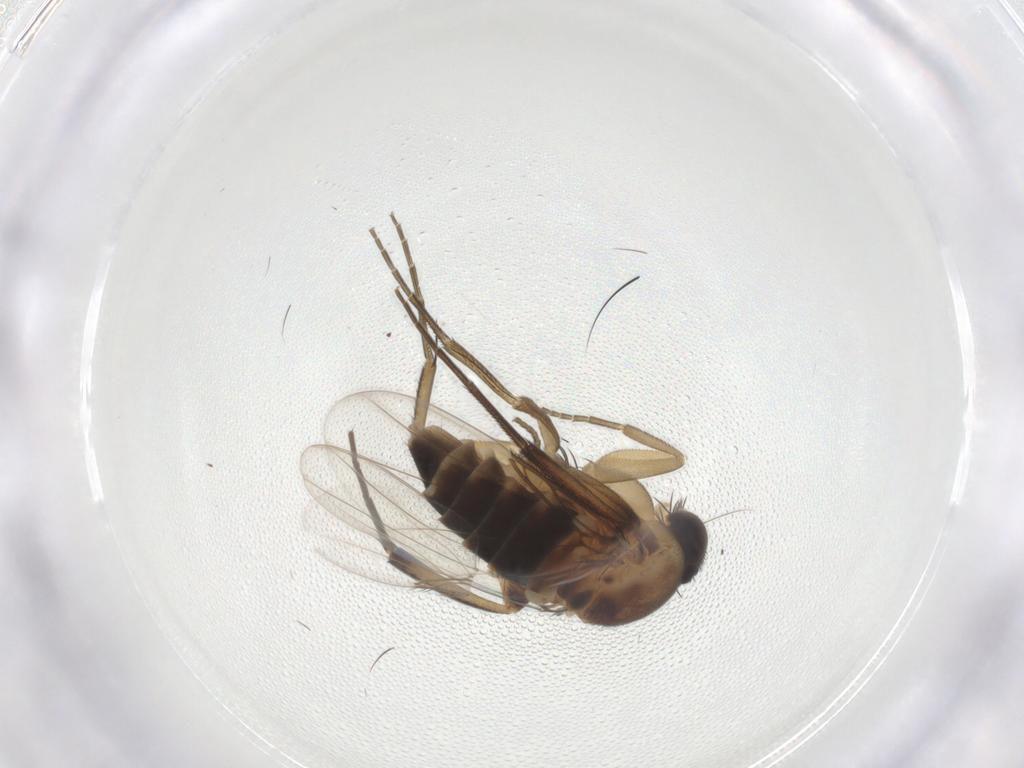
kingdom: Animalia
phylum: Arthropoda
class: Insecta
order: Diptera
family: Phoridae
